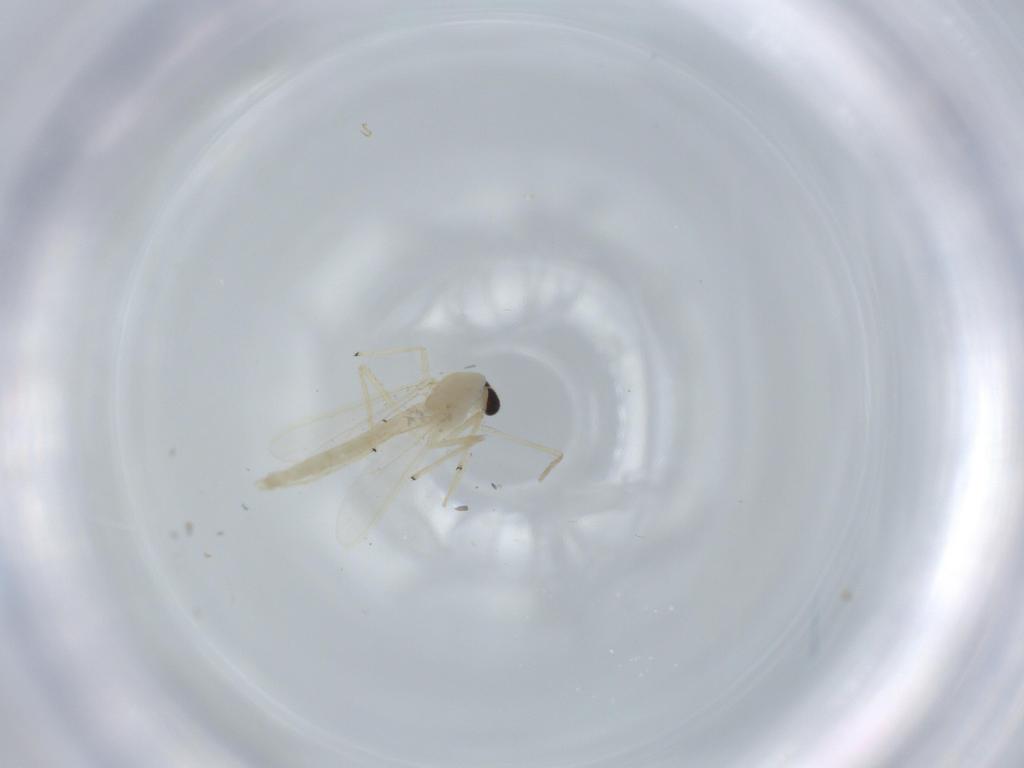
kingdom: Animalia
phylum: Arthropoda
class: Insecta
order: Diptera
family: Chironomidae
